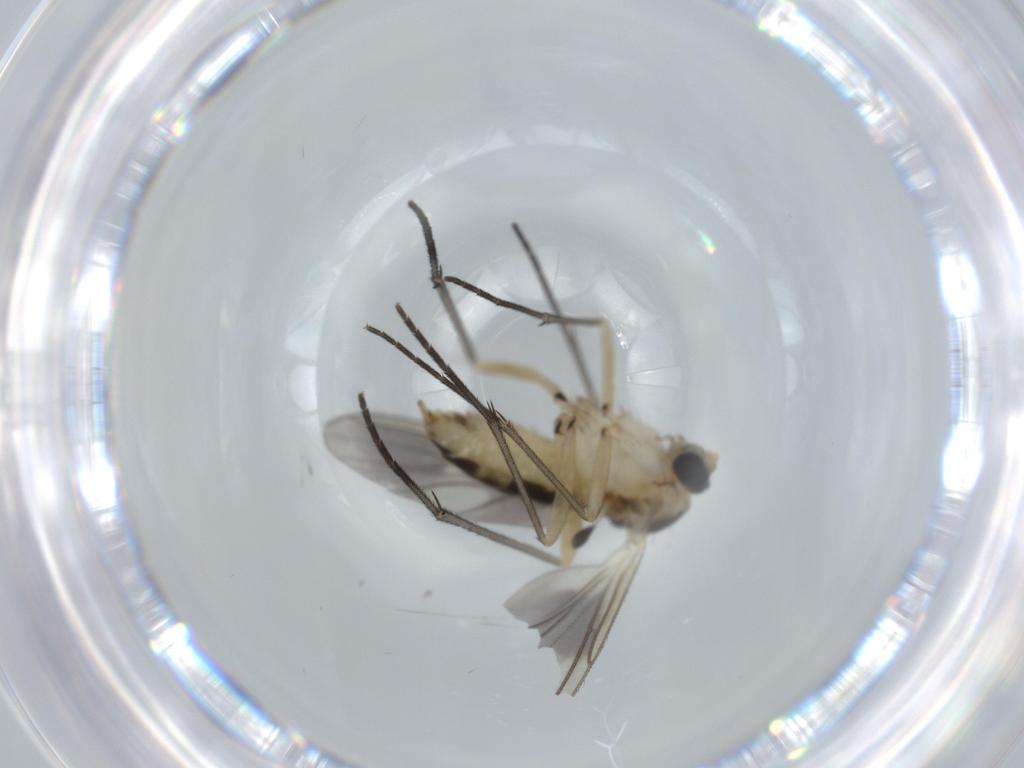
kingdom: Animalia
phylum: Arthropoda
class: Insecta
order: Diptera
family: Sciaridae
